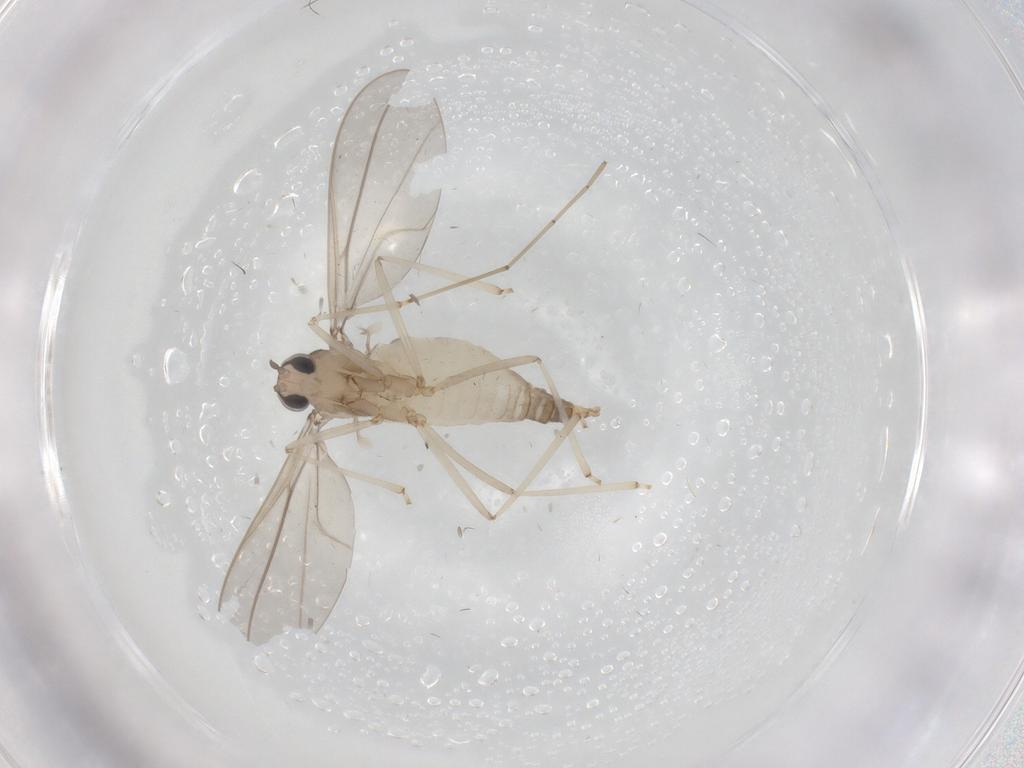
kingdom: Animalia
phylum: Arthropoda
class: Insecta
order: Diptera
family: Cecidomyiidae
